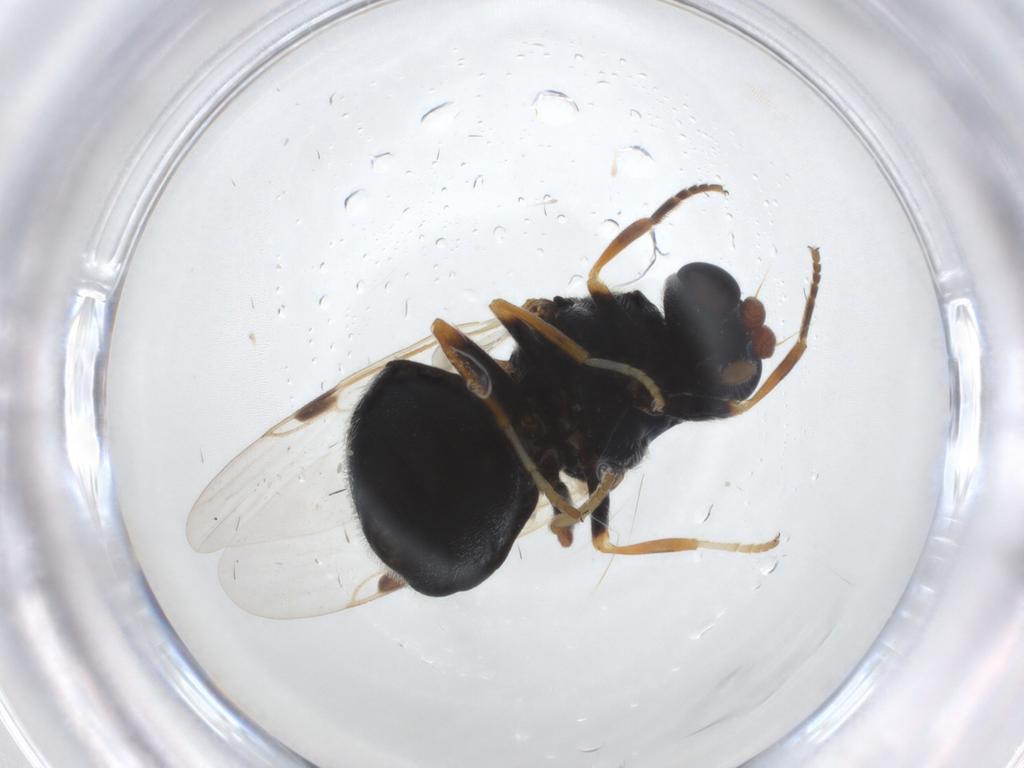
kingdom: Animalia
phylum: Arthropoda
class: Insecta
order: Diptera
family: Stratiomyidae
